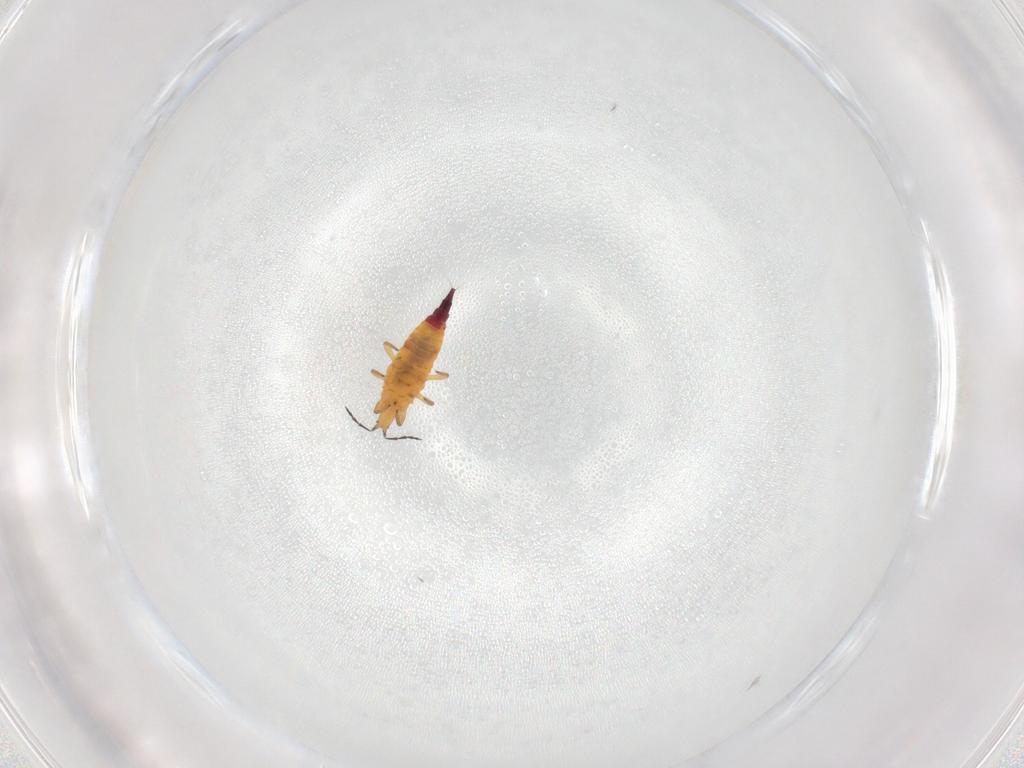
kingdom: Animalia
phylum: Arthropoda
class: Insecta
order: Thysanoptera
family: Phlaeothripidae
